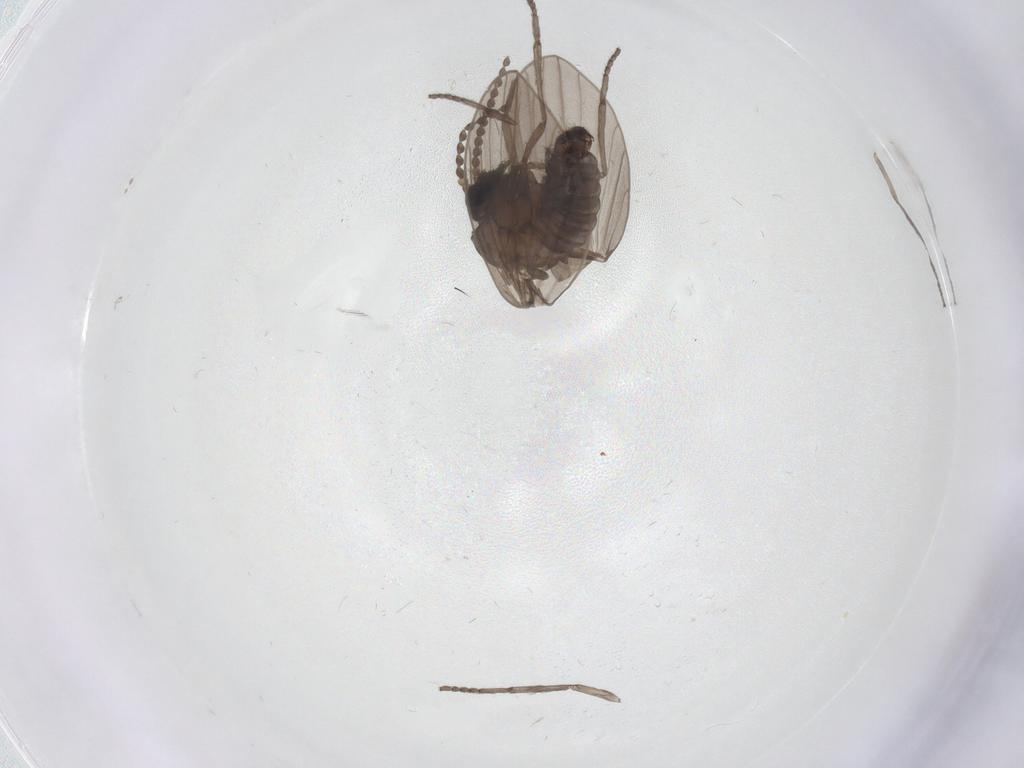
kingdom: Animalia
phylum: Arthropoda
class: Insecta
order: Diptera
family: Psychodidae
